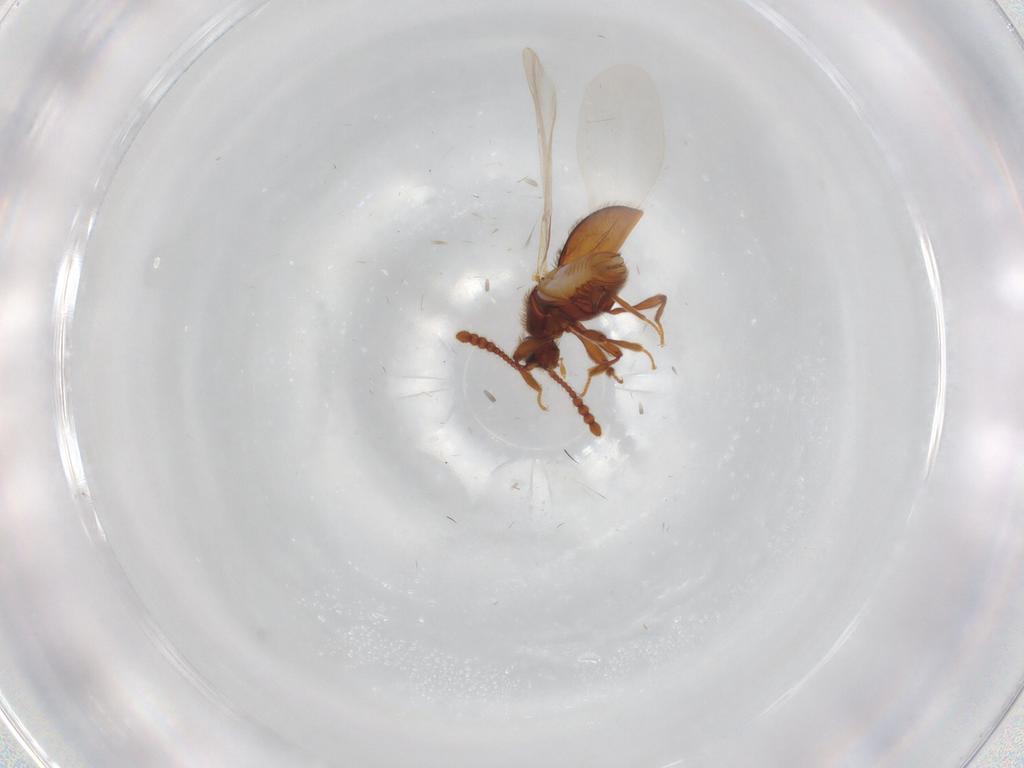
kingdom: Animalia
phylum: Arthropoda
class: Insecta
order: Coleoptera
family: Staphylinidae
